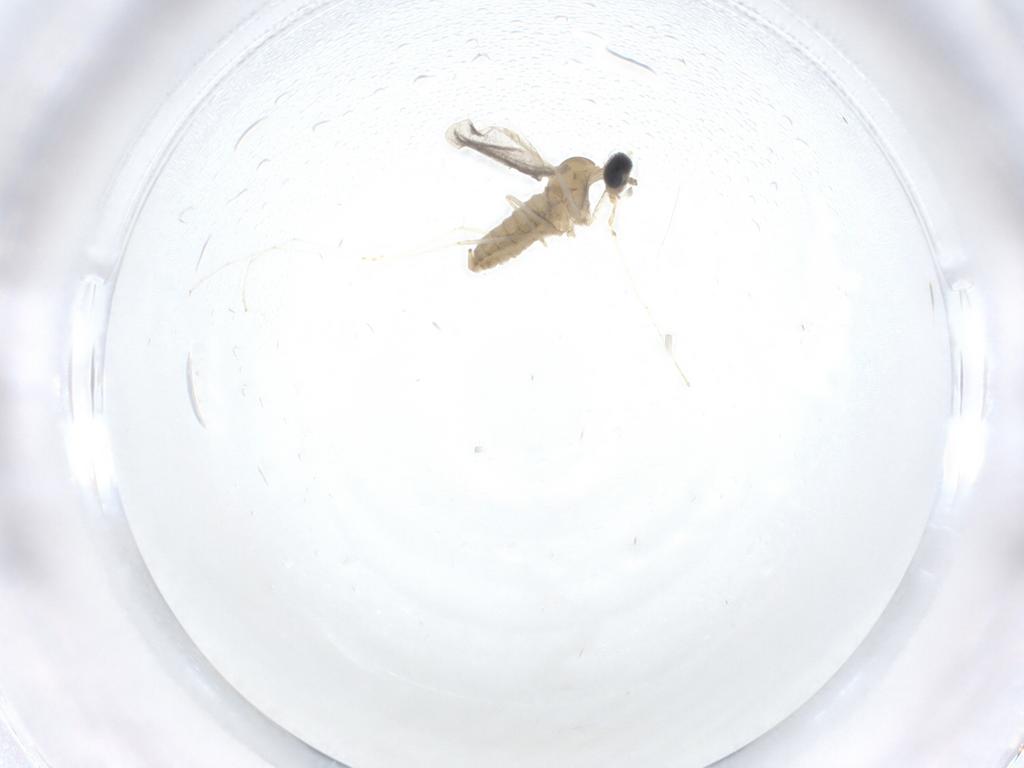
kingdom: Animalia
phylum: Arthropoda
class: Insecta
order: Diptera
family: Cecidomyiidae
